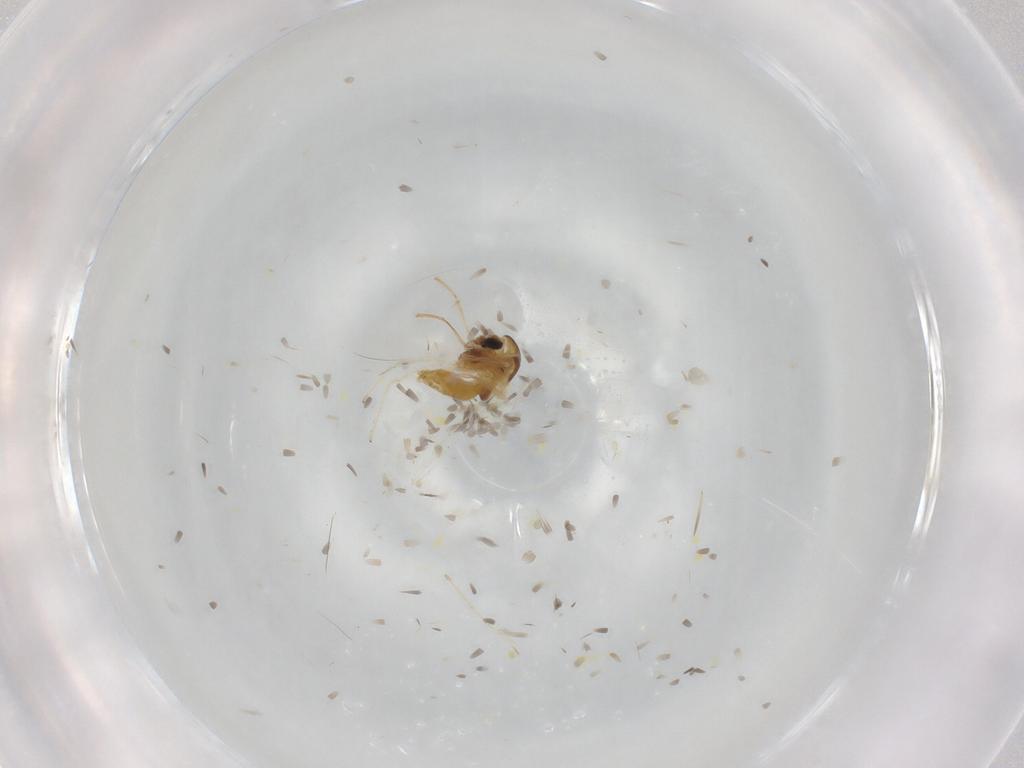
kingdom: Animalia
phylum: Arthropoda
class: Insecta
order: Diptera
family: Chironomidae
